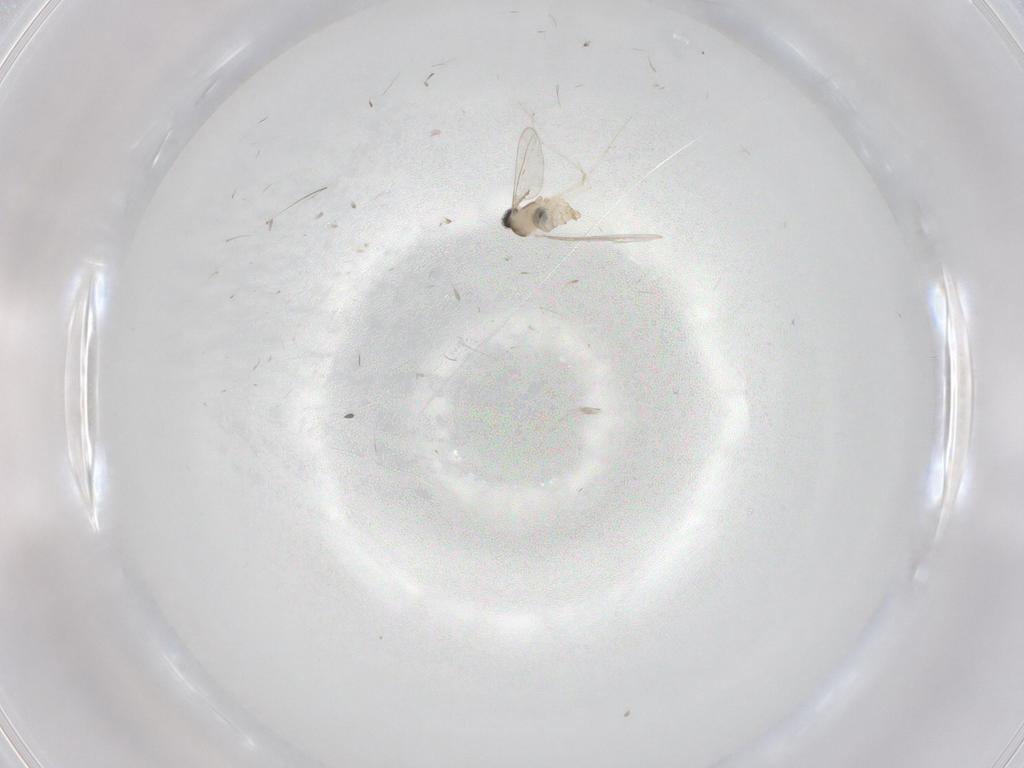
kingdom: Animalia
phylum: Arthropoda
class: Insecta
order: Diptera
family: Cecidomyiidae
